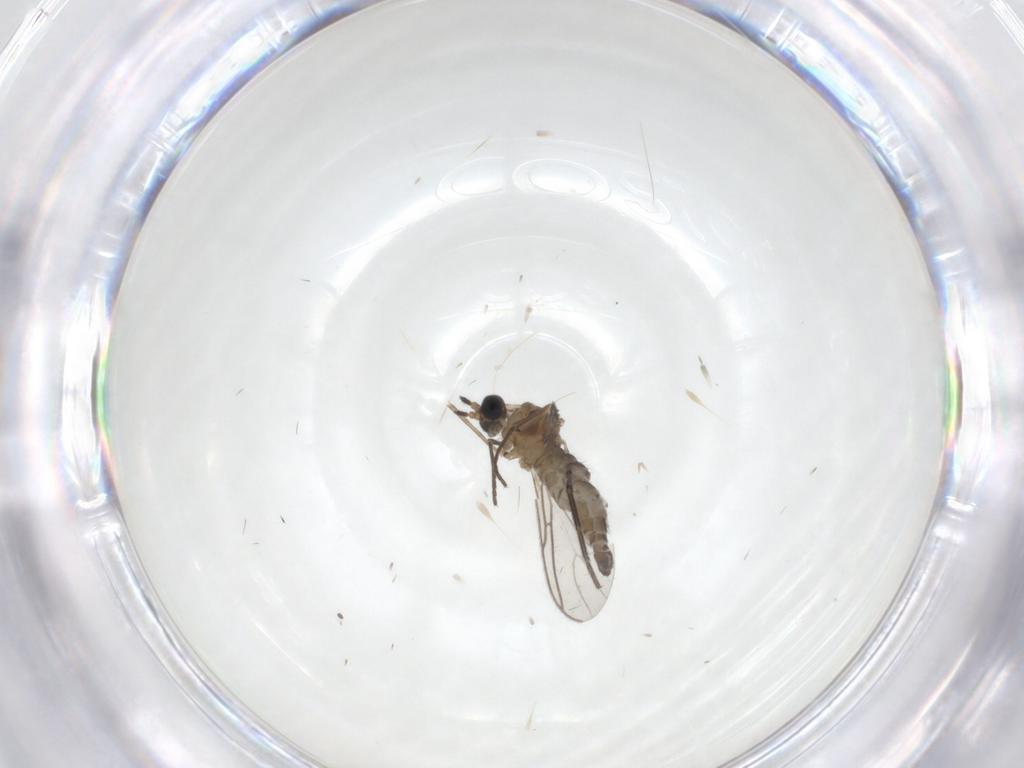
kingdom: Animalia
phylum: Arthropoda
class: Insecta
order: Diptera
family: Sciaridae
